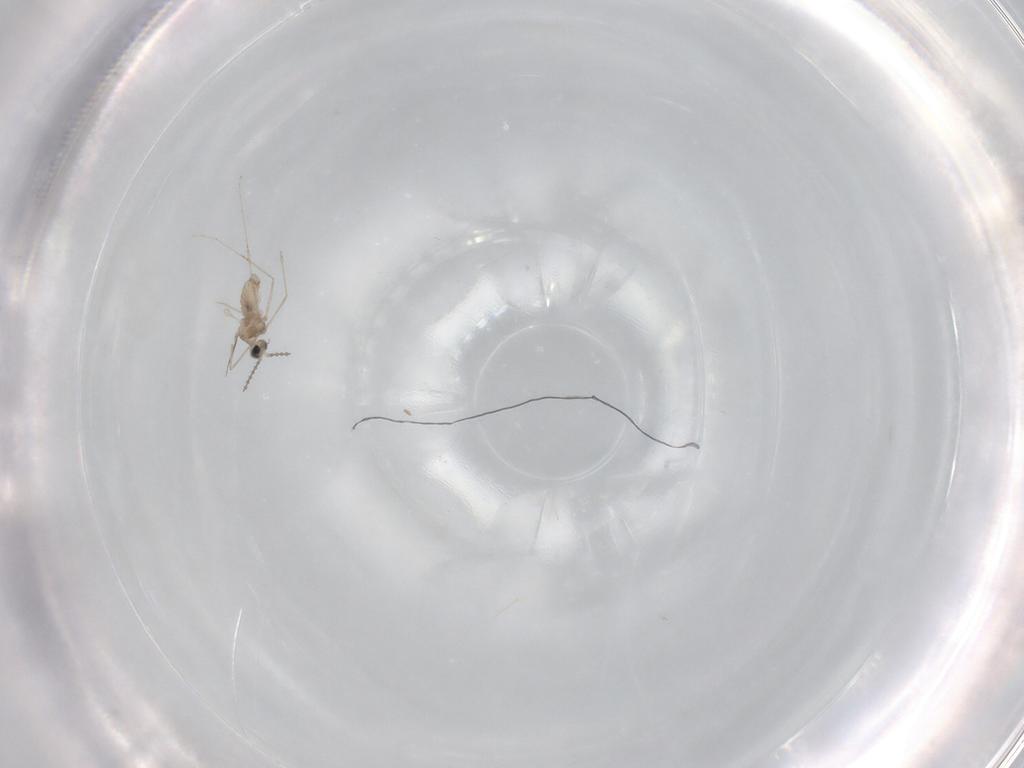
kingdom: Animalia
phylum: Arthropoda
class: Insecta
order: Diptera
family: Cecidomyiidae
